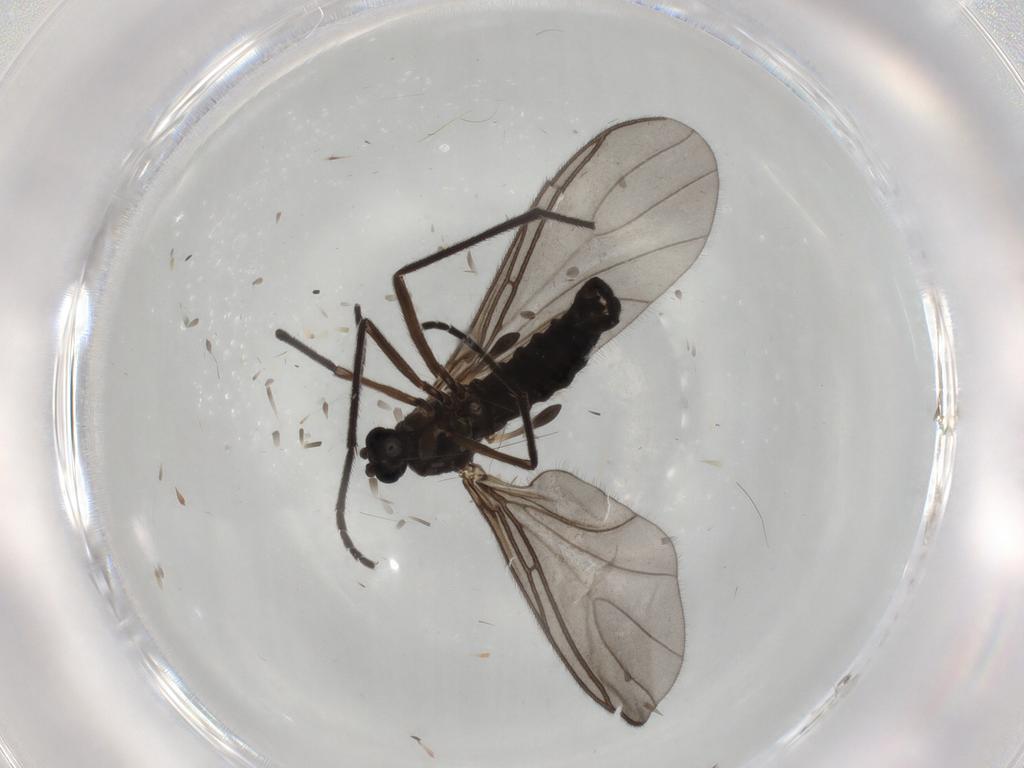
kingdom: Animalia
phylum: Arthropoda
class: Insecta
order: Diptera
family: Sciaridae
